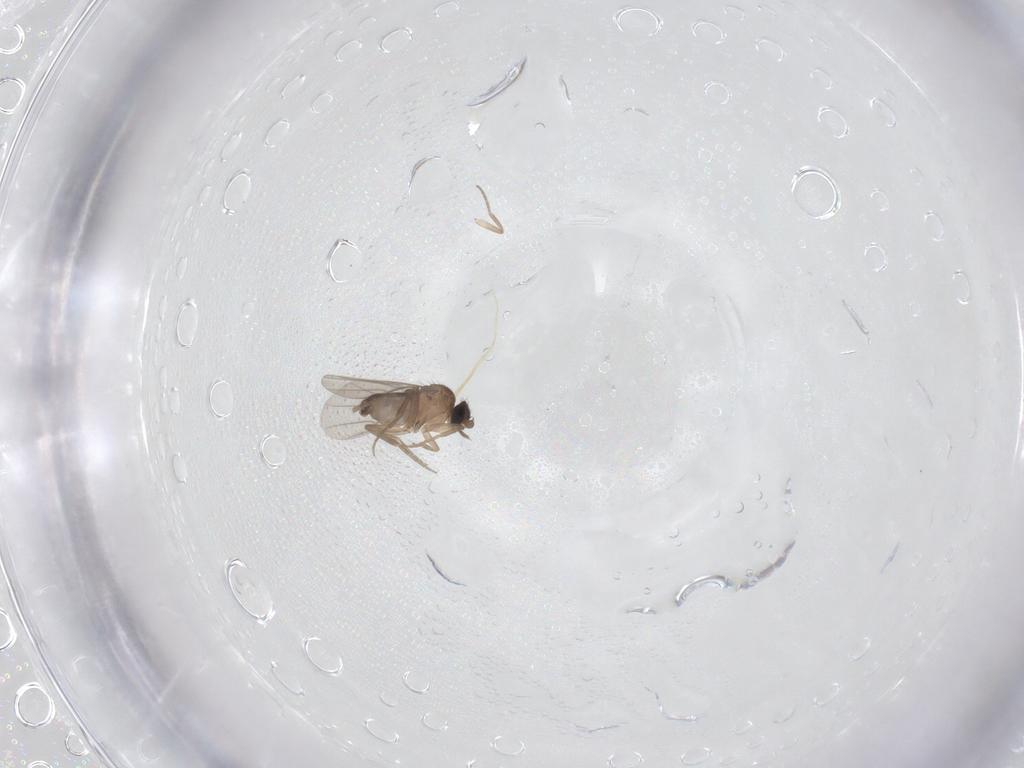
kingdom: Animalia
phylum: Arthropoda
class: Insecta
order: Diptera
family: Phoridae
